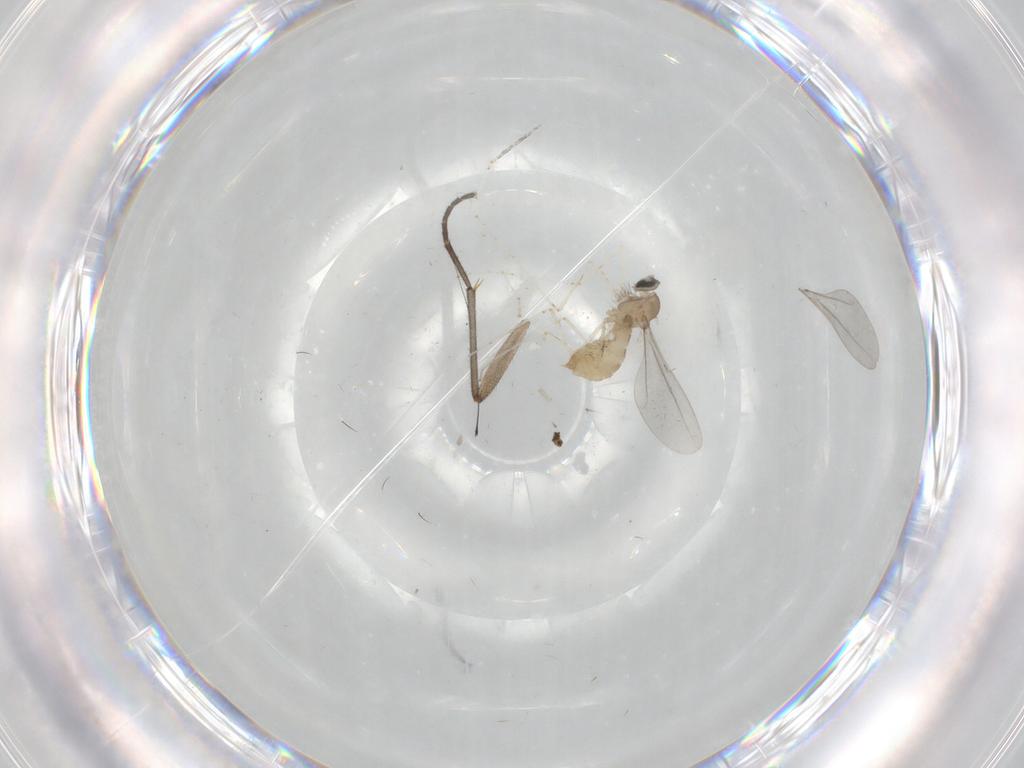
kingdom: Animalia
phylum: Arthropoda
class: Insecta
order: Diptera
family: Cecidomyiidae
